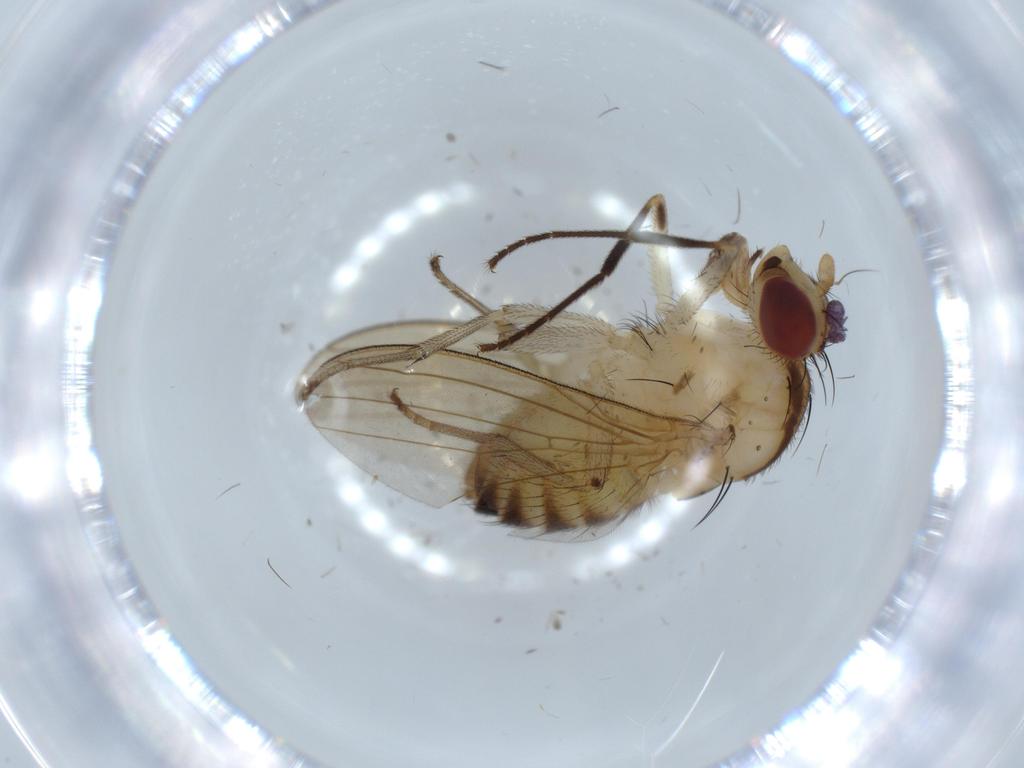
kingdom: Animalia
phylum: Arthropoda
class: Insecta
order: Diptera
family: Lauxaniidae
